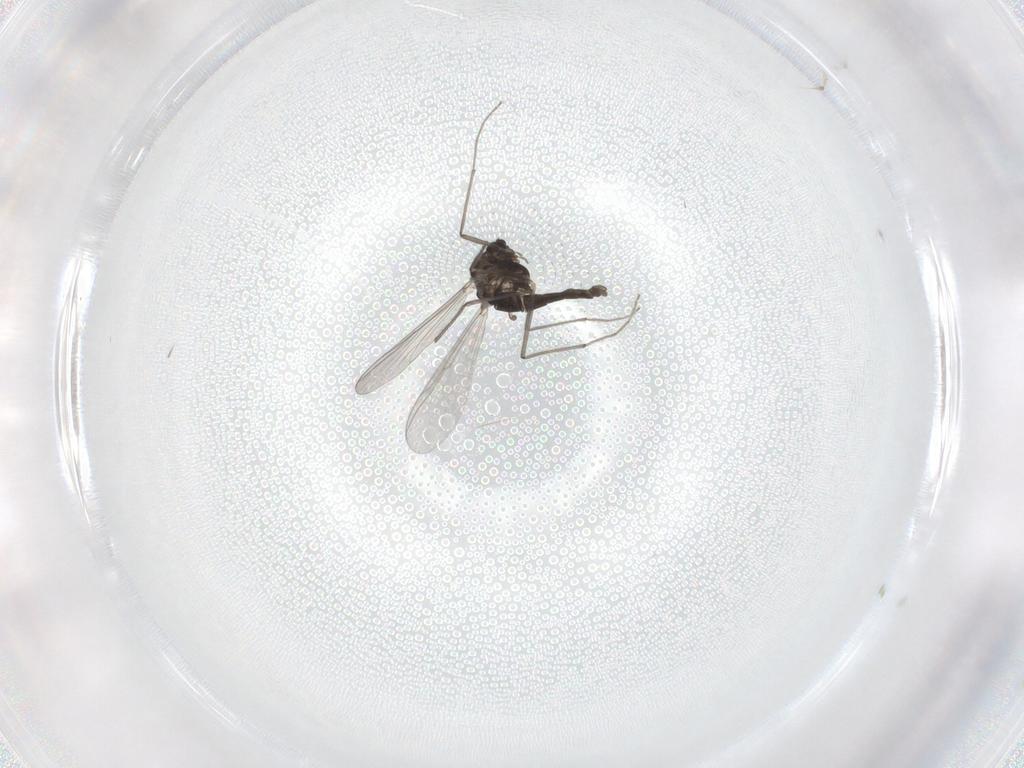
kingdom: Animalia
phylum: Arthropoda
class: Insecta
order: Diptera
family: Chironomidae
